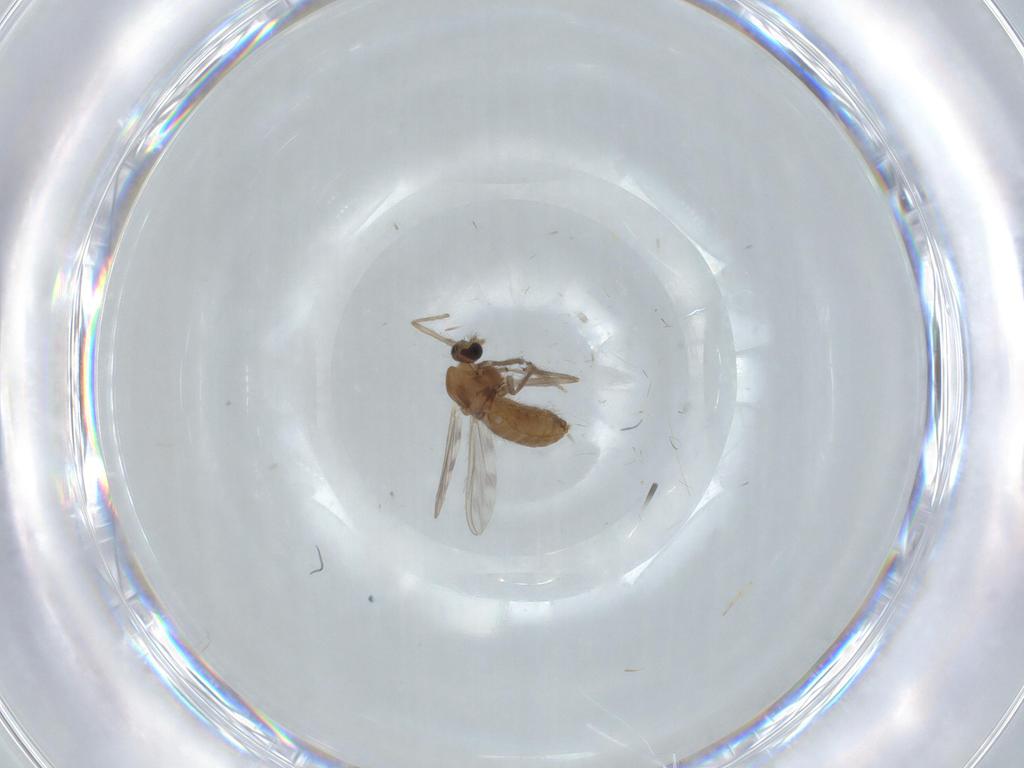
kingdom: Animalia
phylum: Arthropoda
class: Insecta
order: Diptera
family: Chironomidae
